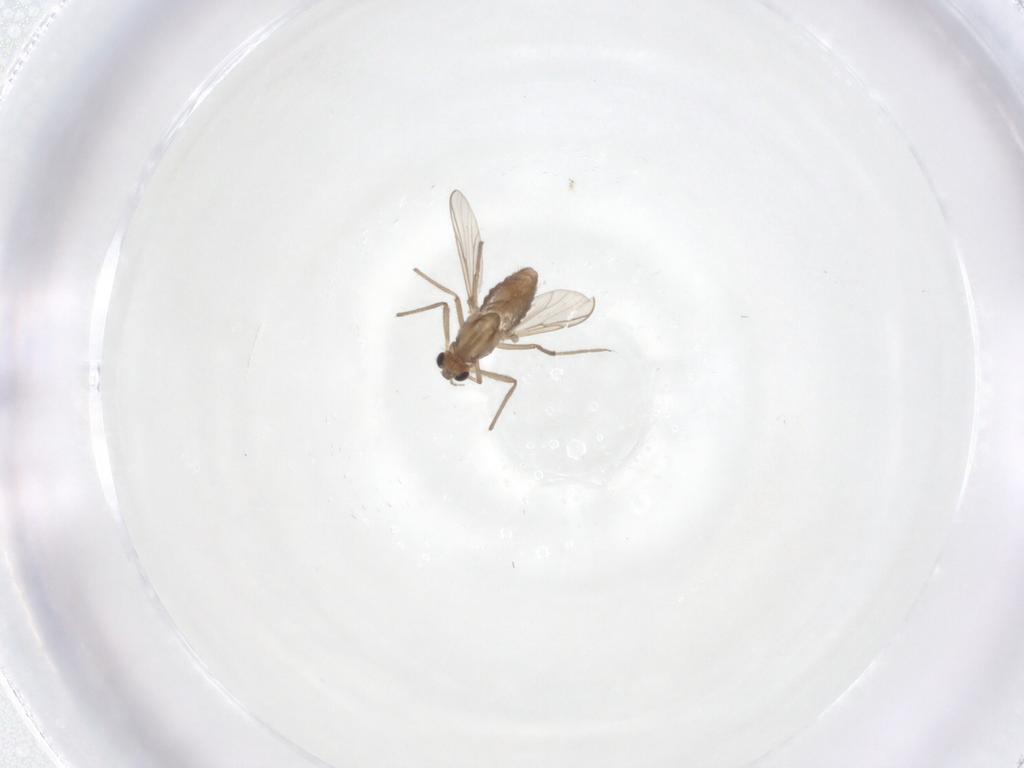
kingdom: Animalia
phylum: Arthropoda
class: Insecta
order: Diptera
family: Chironomidae
